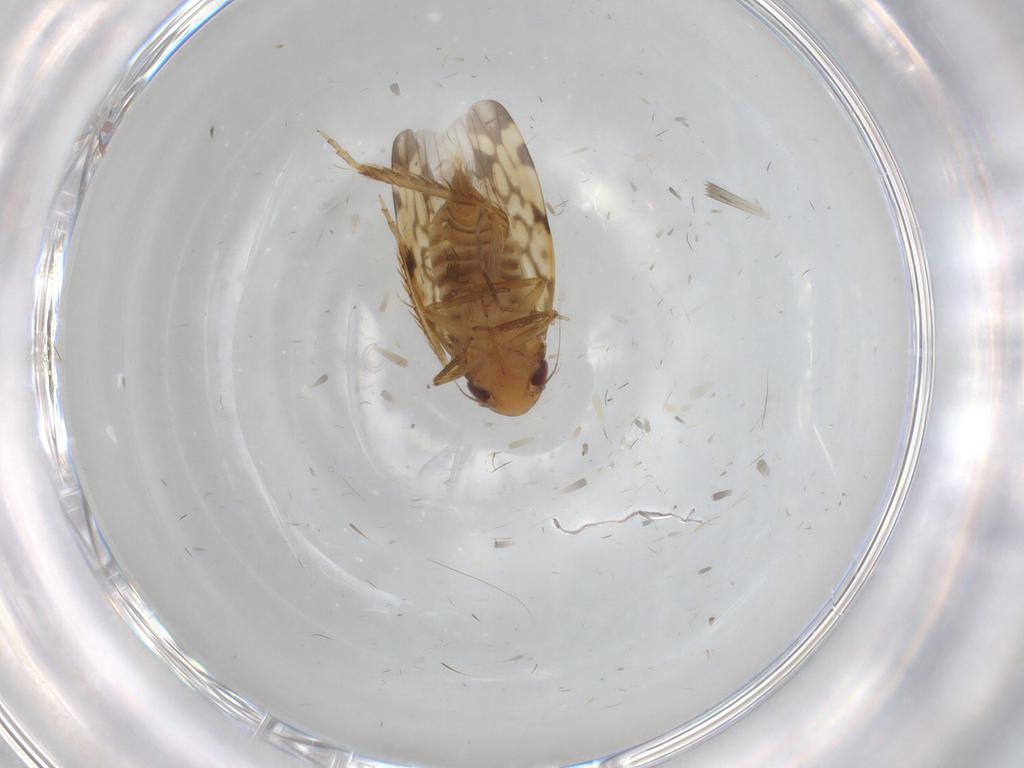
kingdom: Animalia
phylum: Arthropoda
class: Insecta
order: Hemiptera
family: Cicadellidae
